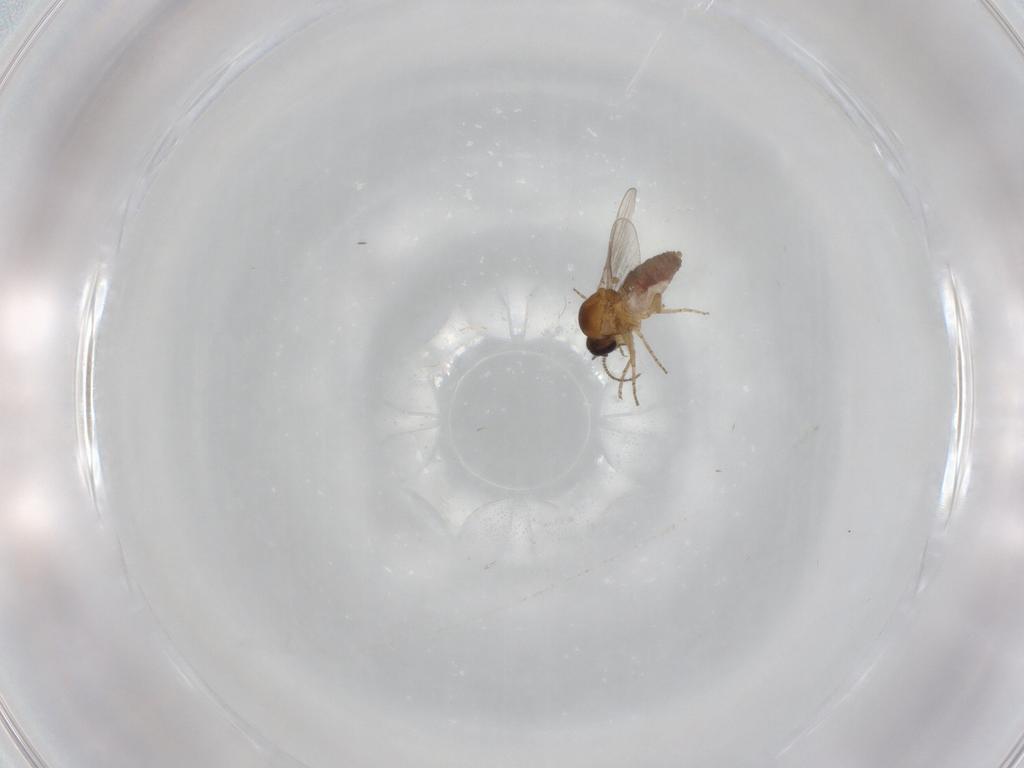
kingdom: Animalia
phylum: Arthropoda
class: Insecta
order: Diptera
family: Ceratopogonidae
